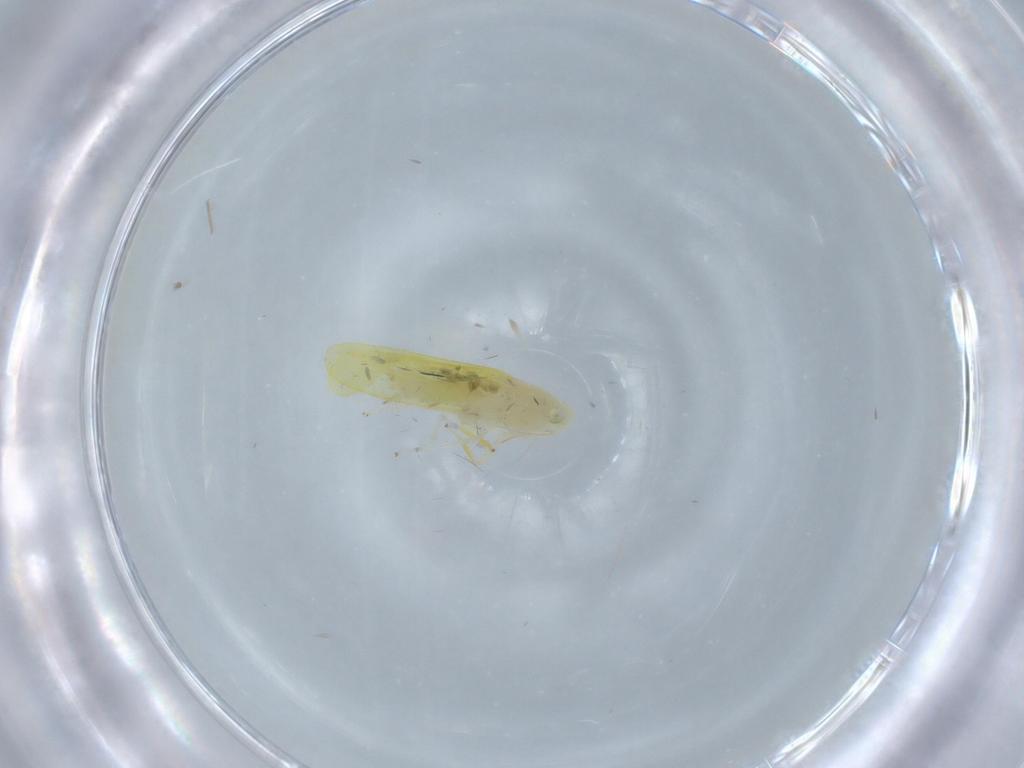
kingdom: Animalia
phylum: Arthropoda
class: Insecta
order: Hemiptera
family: Cicadellidae
